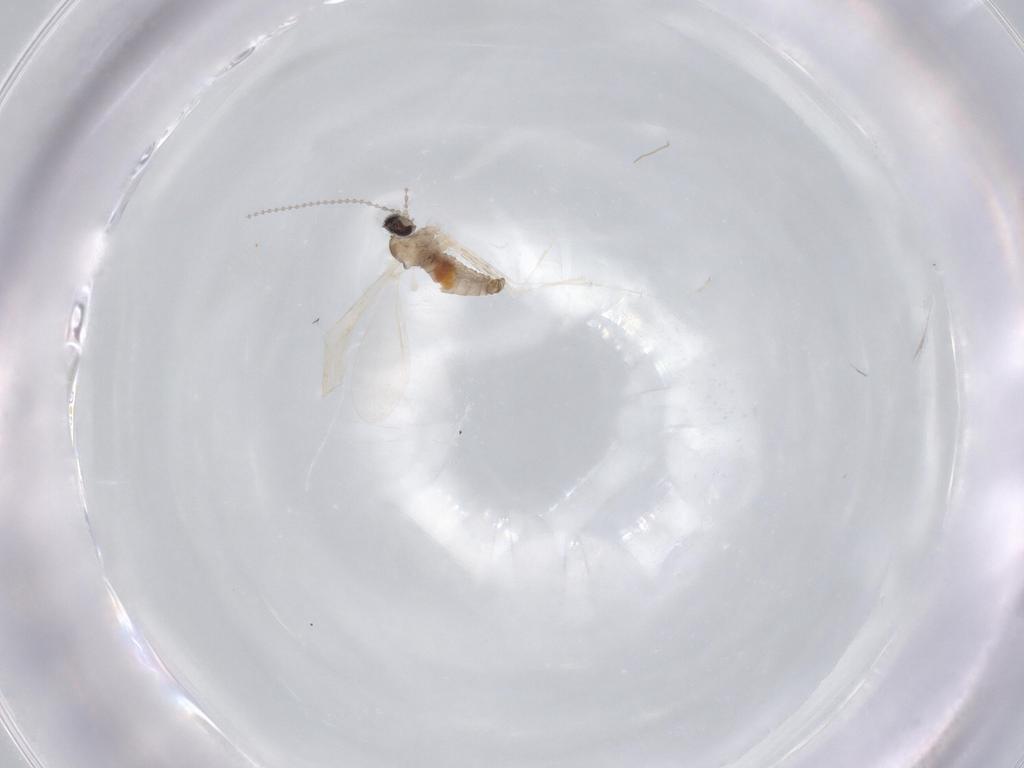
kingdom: Animalia
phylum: Arthropoda
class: Insecta
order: Diptera
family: Cecidomyiidae
